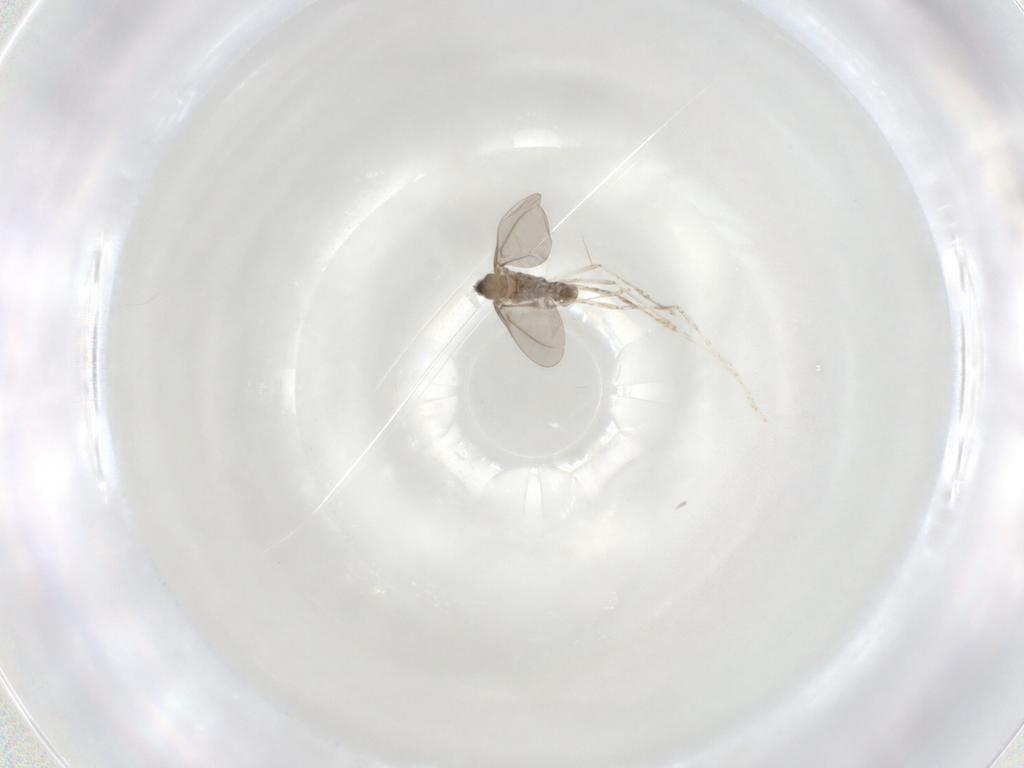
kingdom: Animalia
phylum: Arthropoda
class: Insecta
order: Diptera
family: Cecidomyiidae
